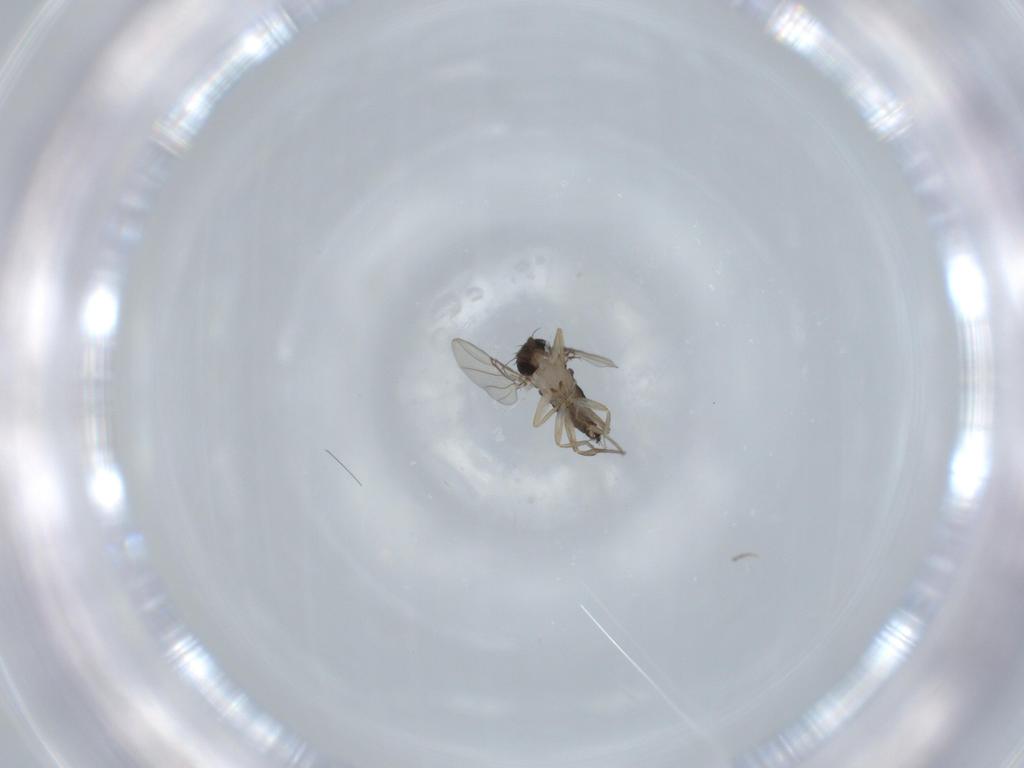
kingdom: Animalia
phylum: Arthropoda
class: Insecta
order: Diptera
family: Phoridae
